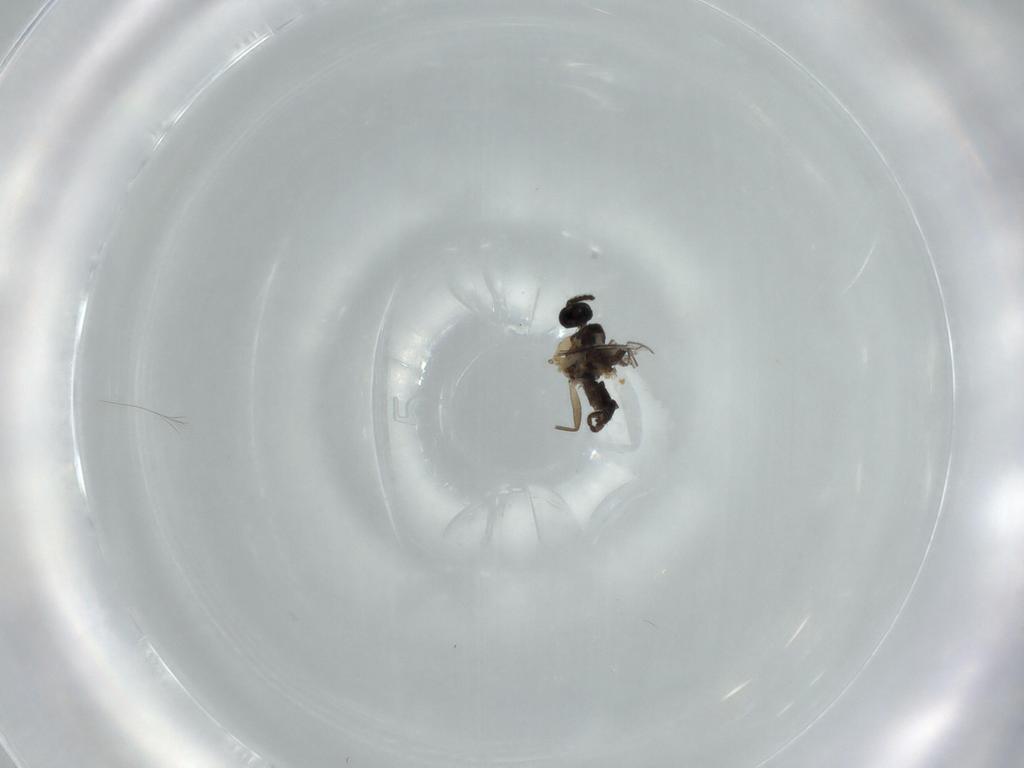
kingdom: Animalia
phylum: Arthropoda
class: Insecta
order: Diptera
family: Sciaridae
